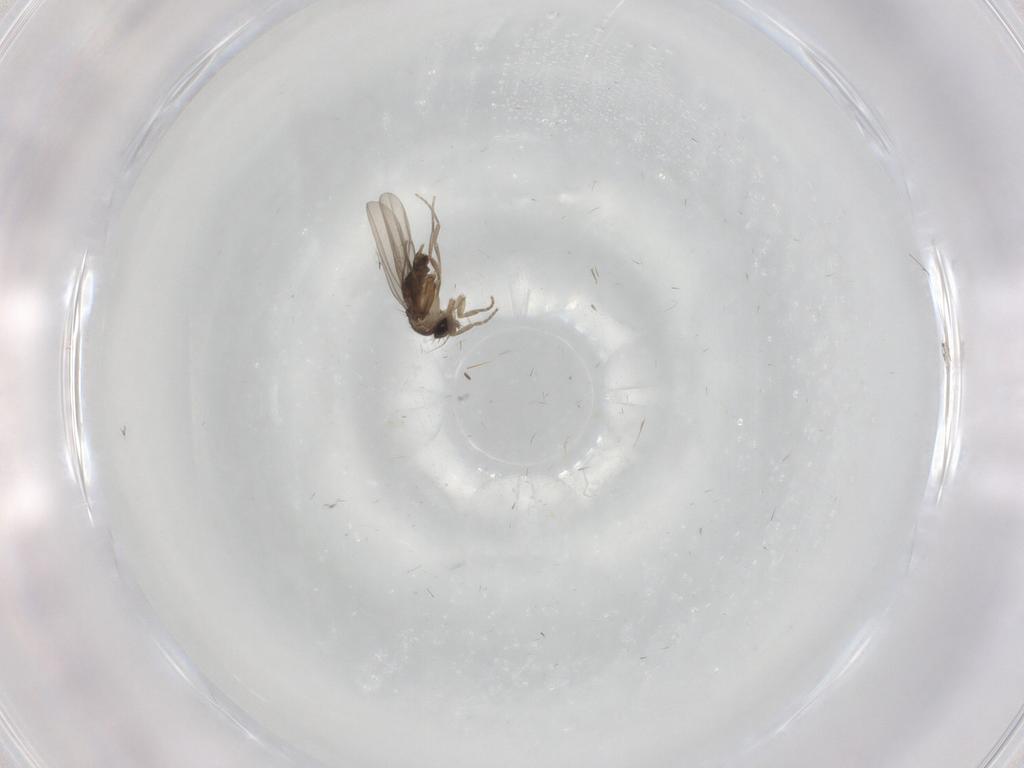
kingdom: Animalia
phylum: Arthropoda
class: Insecta
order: Diptera
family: Phoridae
